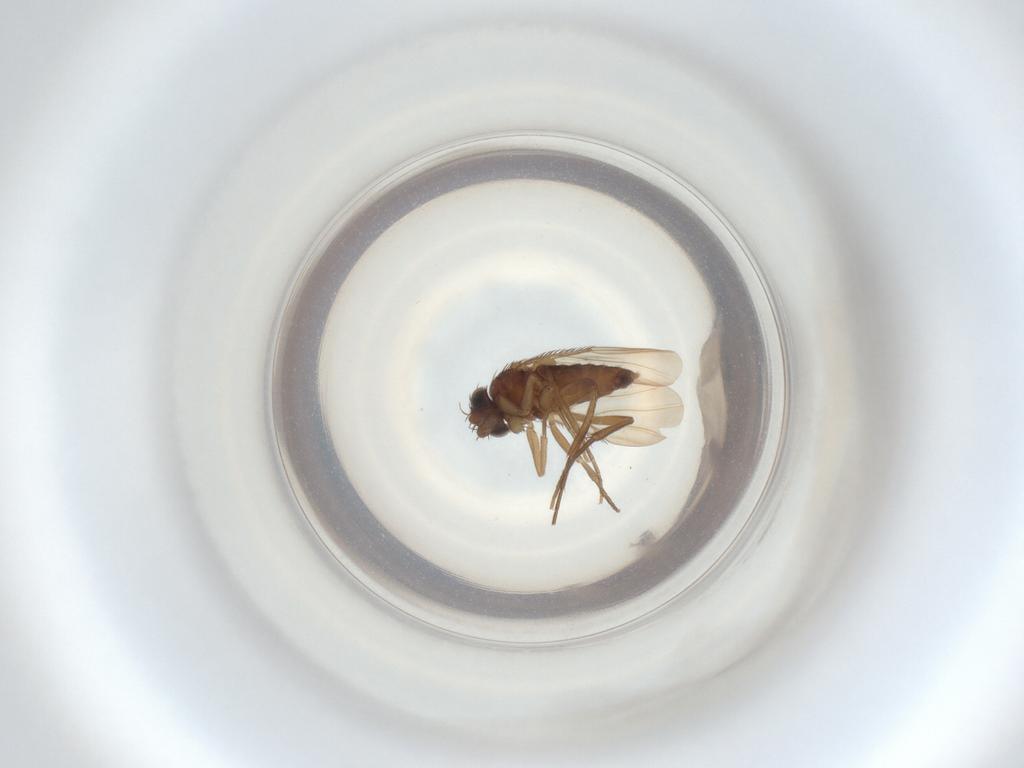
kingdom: Animalia
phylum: Arthropoda
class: Insecta
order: Diptera
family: Phoridae
